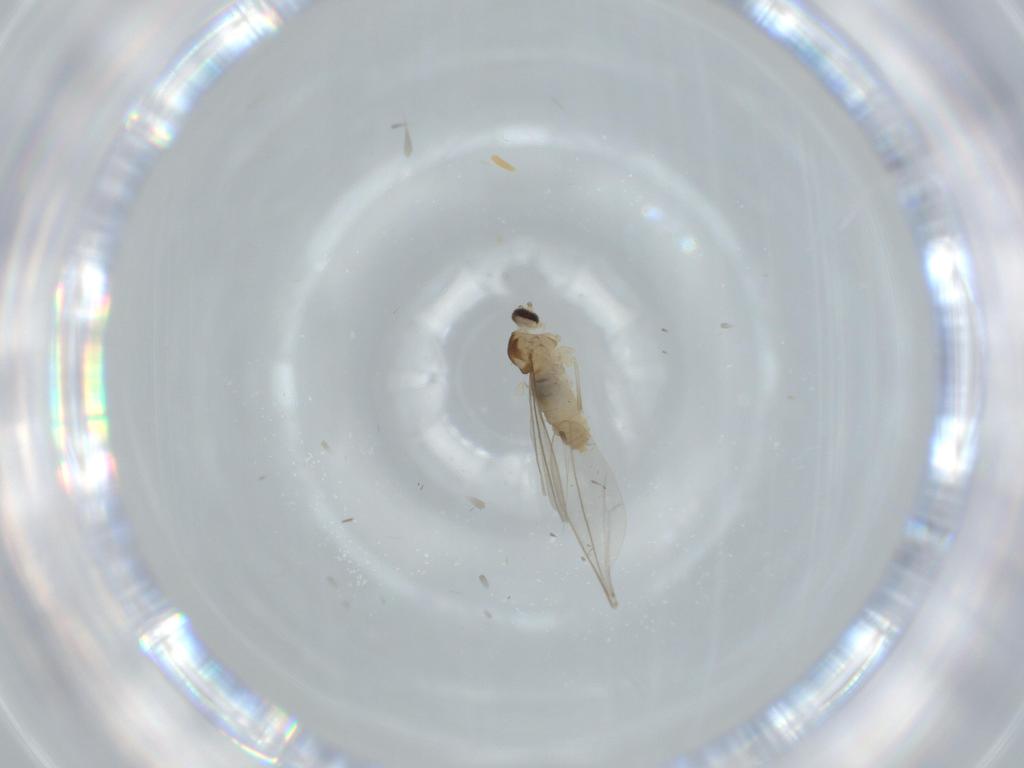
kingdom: Animalia
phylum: Arthropoda
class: Insecta
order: Diptera
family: Cecidomyiidae
